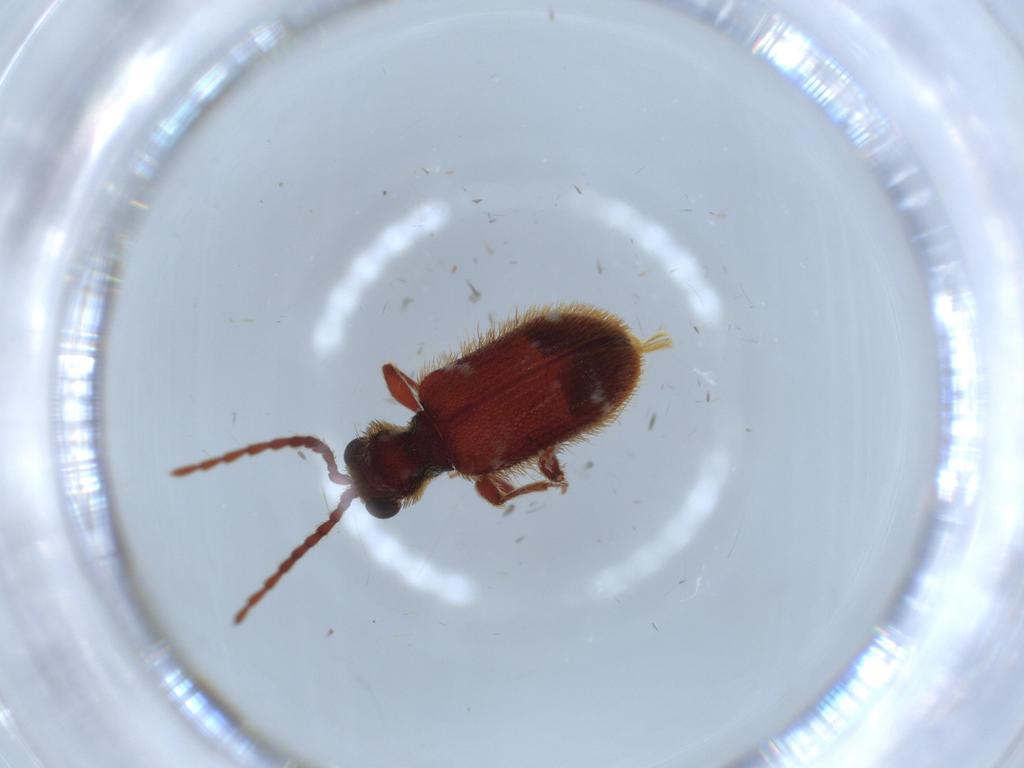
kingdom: Animalia
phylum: Arthropoda
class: Insecta
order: Coleoptera
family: Ptinidae
